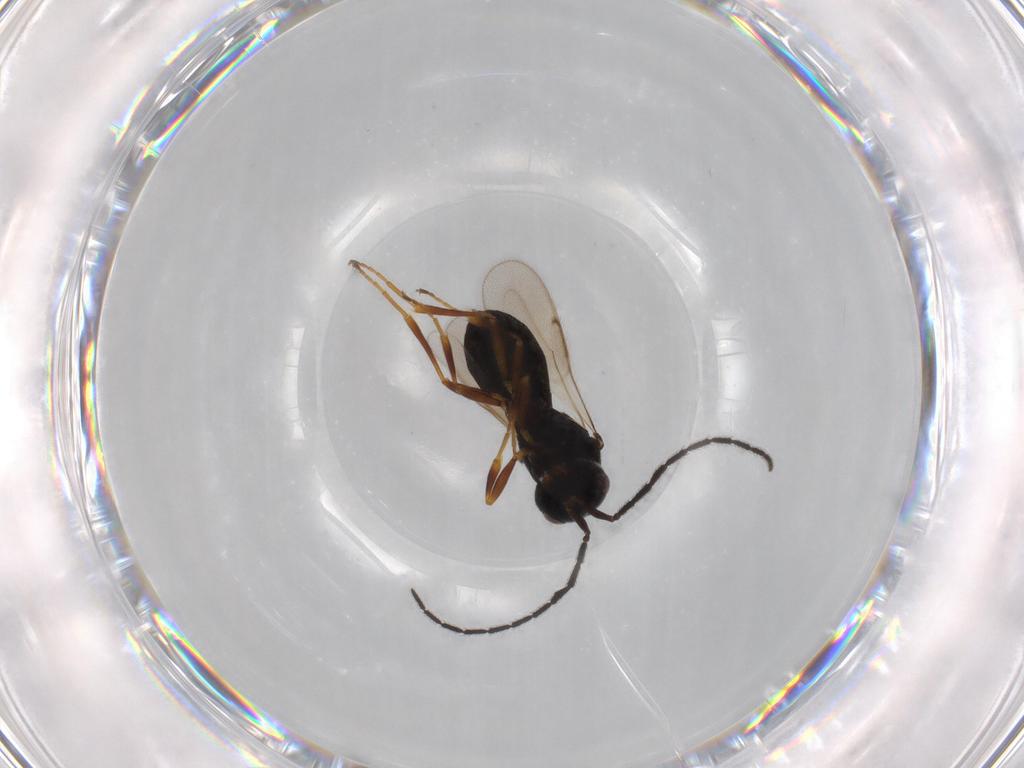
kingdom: Animalia
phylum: Arthropoda
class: Insecta
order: Hymenoptera
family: Scelionidae
